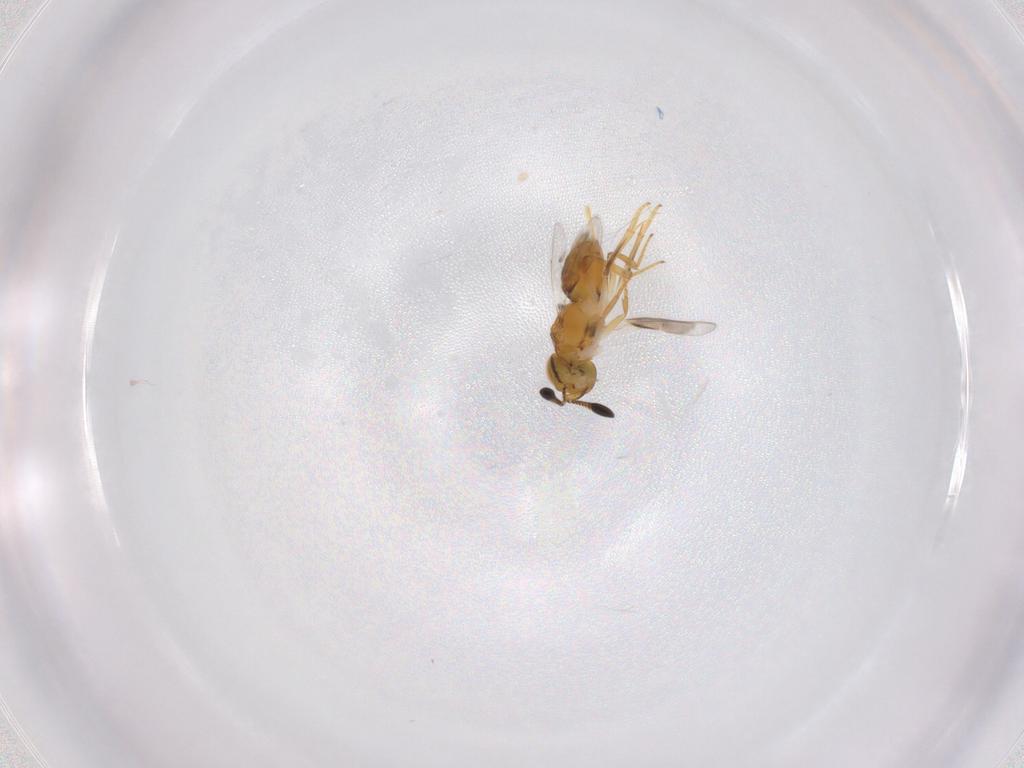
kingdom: Animalia
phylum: Arthropoda
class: Insecta
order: Hymenoptera
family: Encyrtidae
